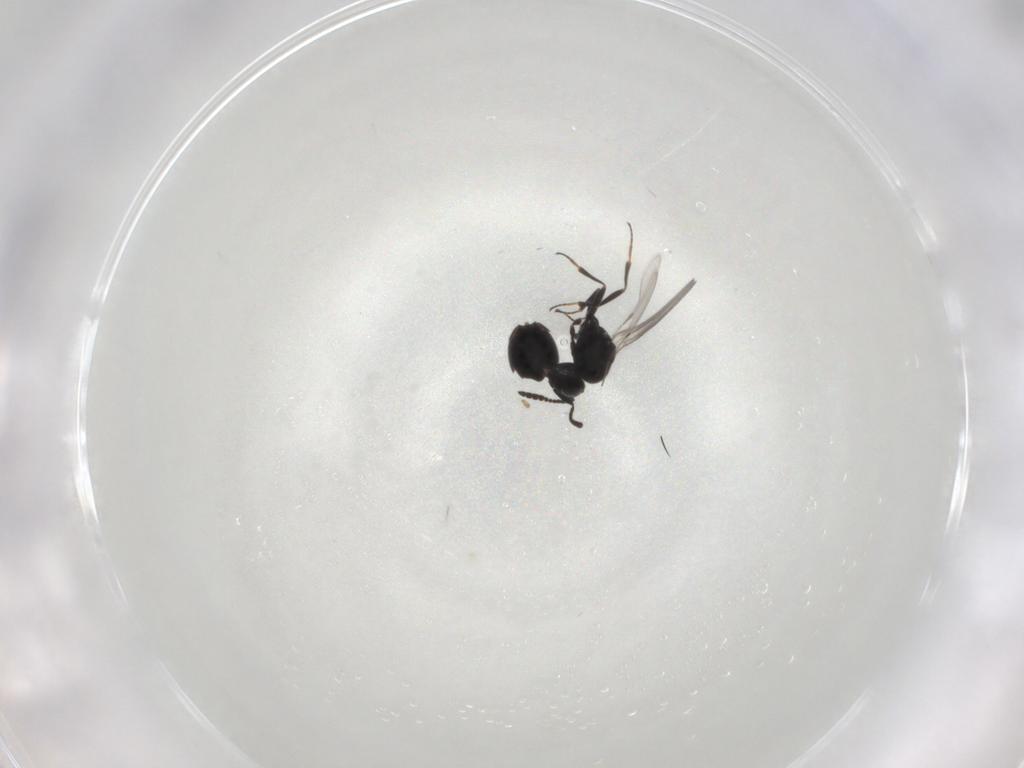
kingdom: Animalia
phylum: Arthropoda
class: Insecta
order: Hymenoptera
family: Scelionidae
